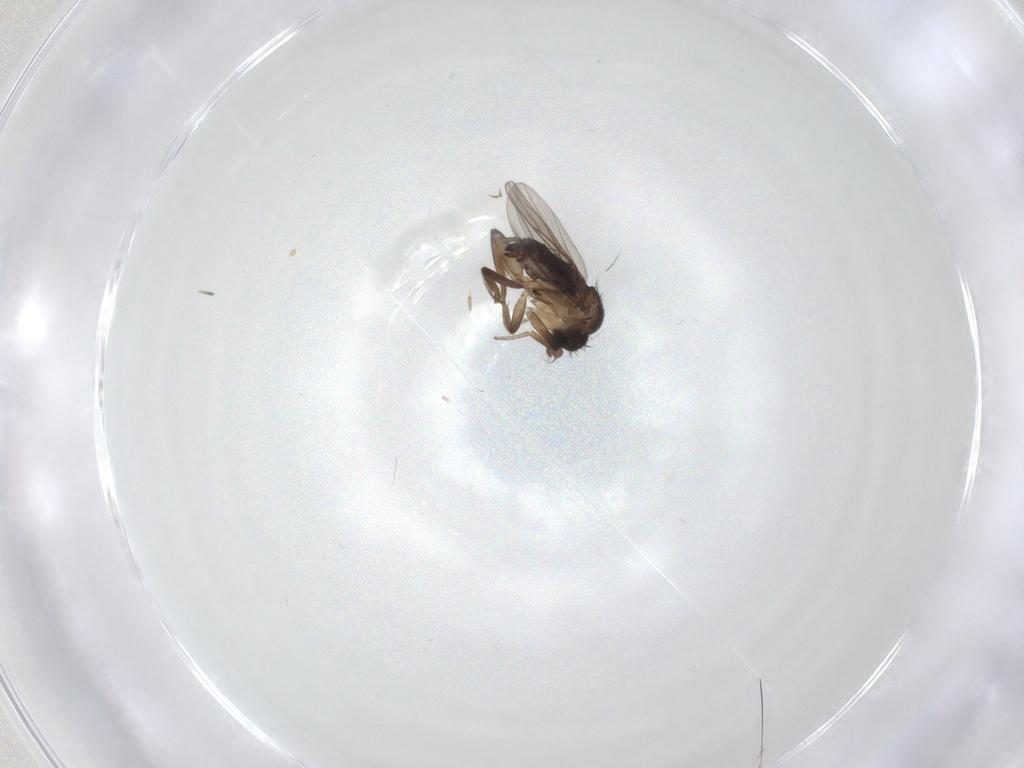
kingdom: Animalia
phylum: Arthropoda
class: Insecta
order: Diptera
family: Phoridae
